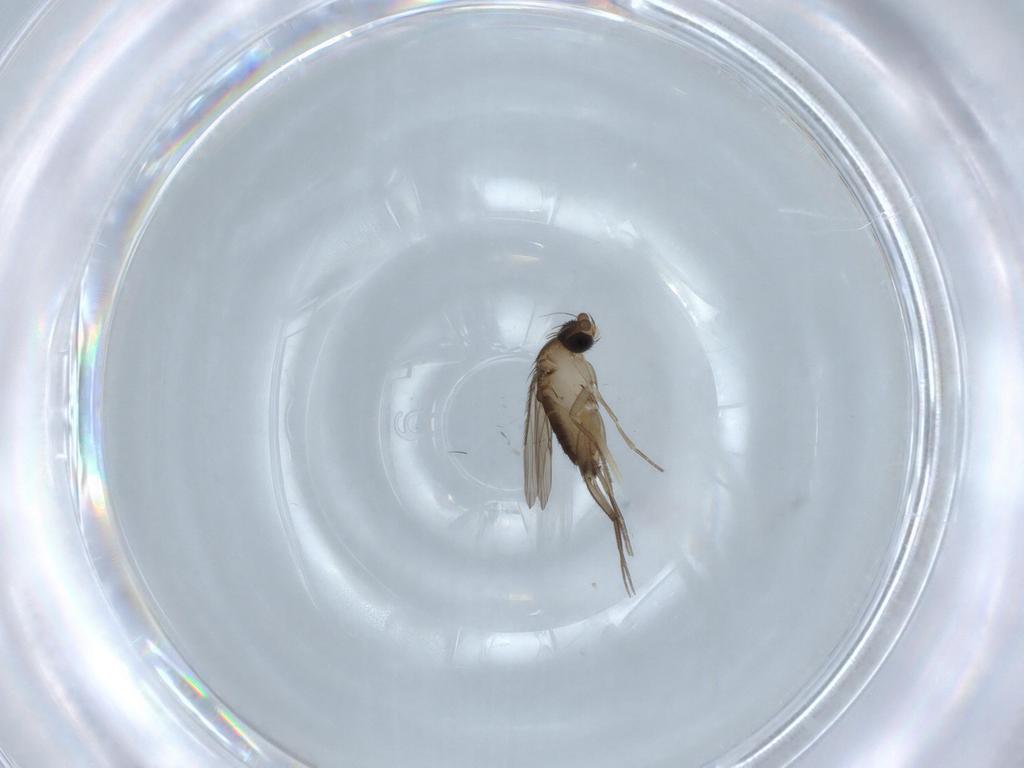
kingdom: Animalia
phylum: Arthropoda
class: Insecta
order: Diptera
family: Phoridae
